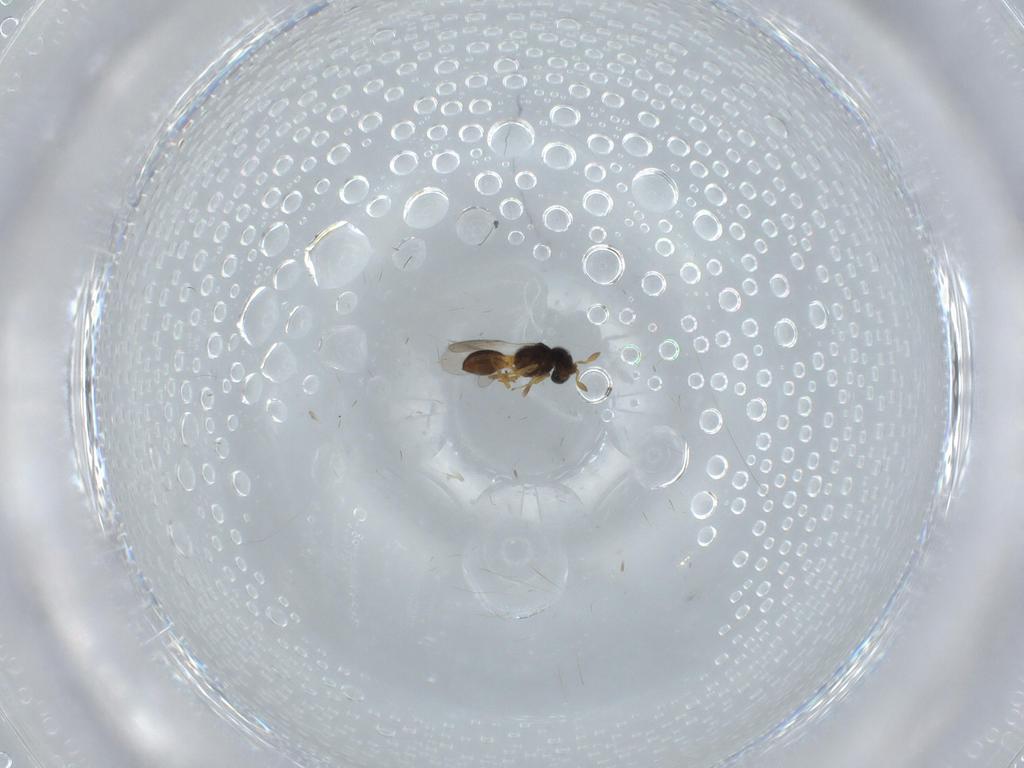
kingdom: Animalia
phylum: Arthropoda
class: Insecta
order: Hymenoptera
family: Scelionidae
